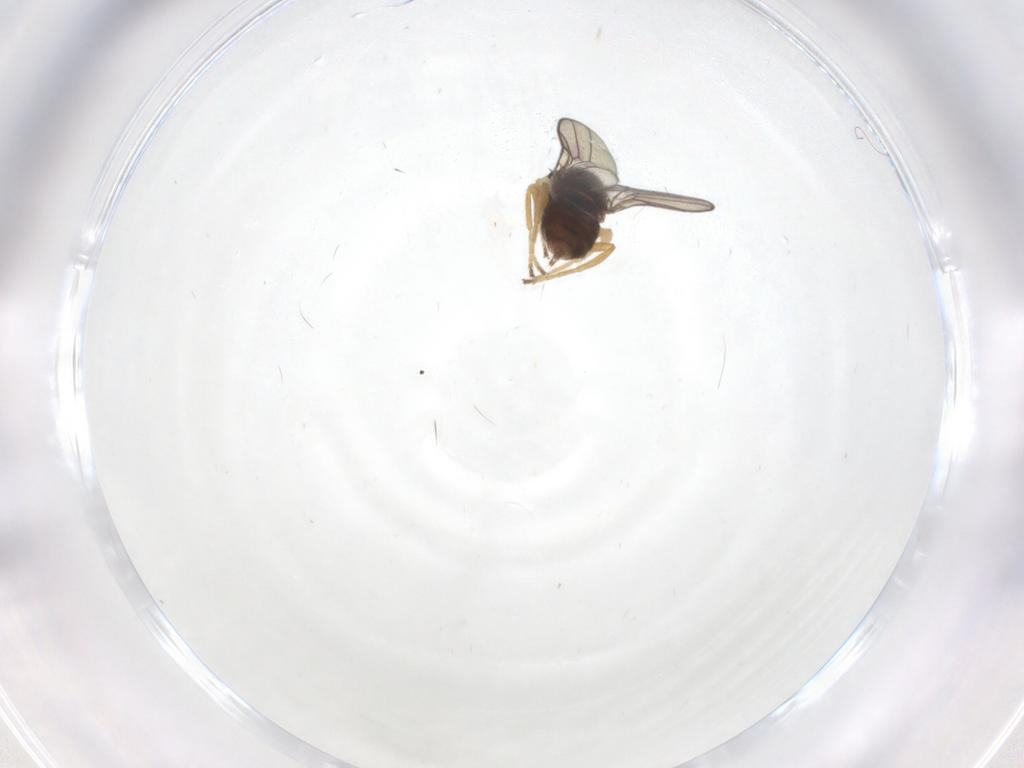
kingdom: Animalia
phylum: Arthropoda
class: Insecta
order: Diptera
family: Chloropidae
